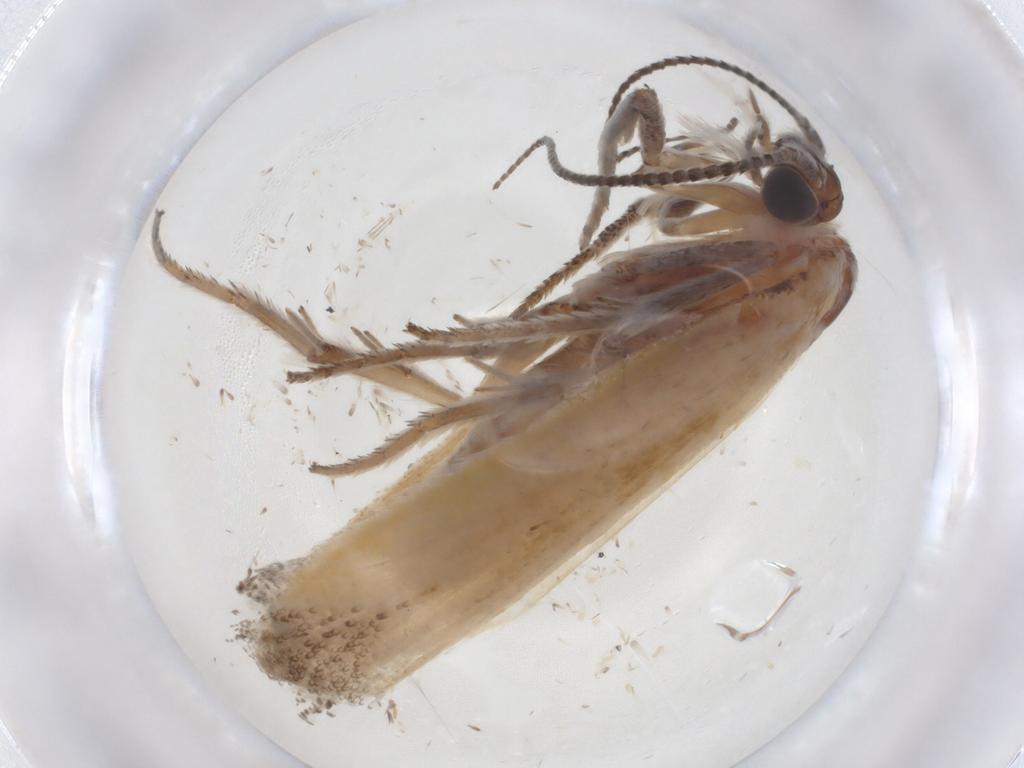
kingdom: Animalia
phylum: Arthropoda
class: Insecta
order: Lepidoptera
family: Ypsolophidae
